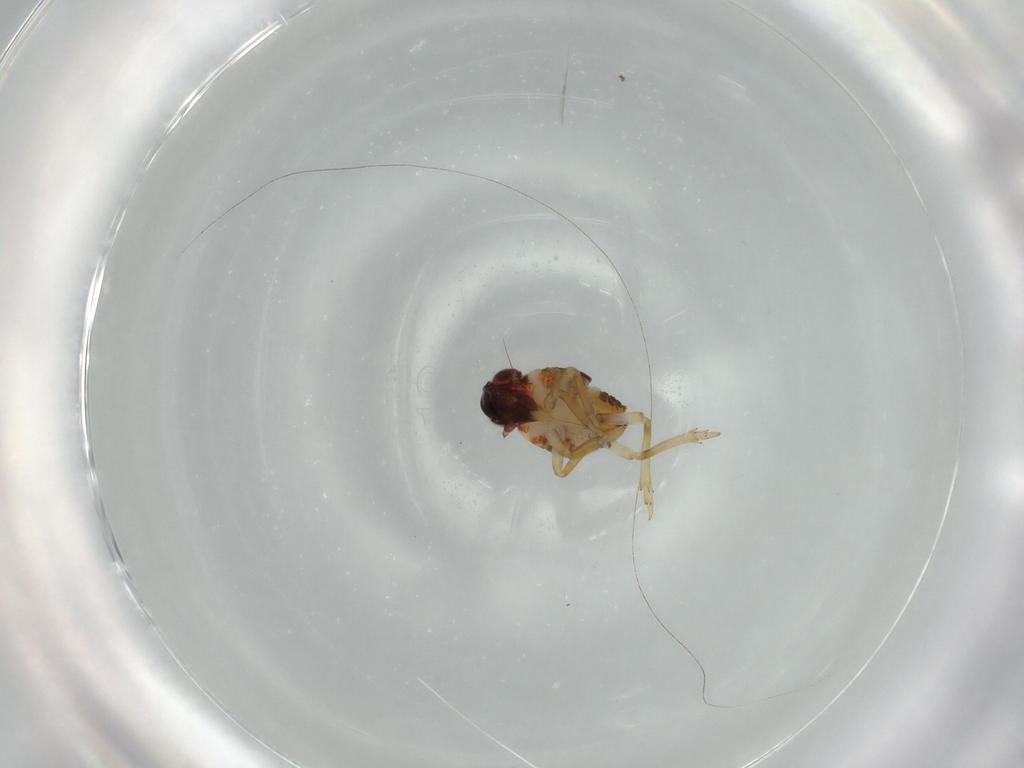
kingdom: Animalia
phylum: Arthropoda
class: Insecta
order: Hemiptera
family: Issidae
